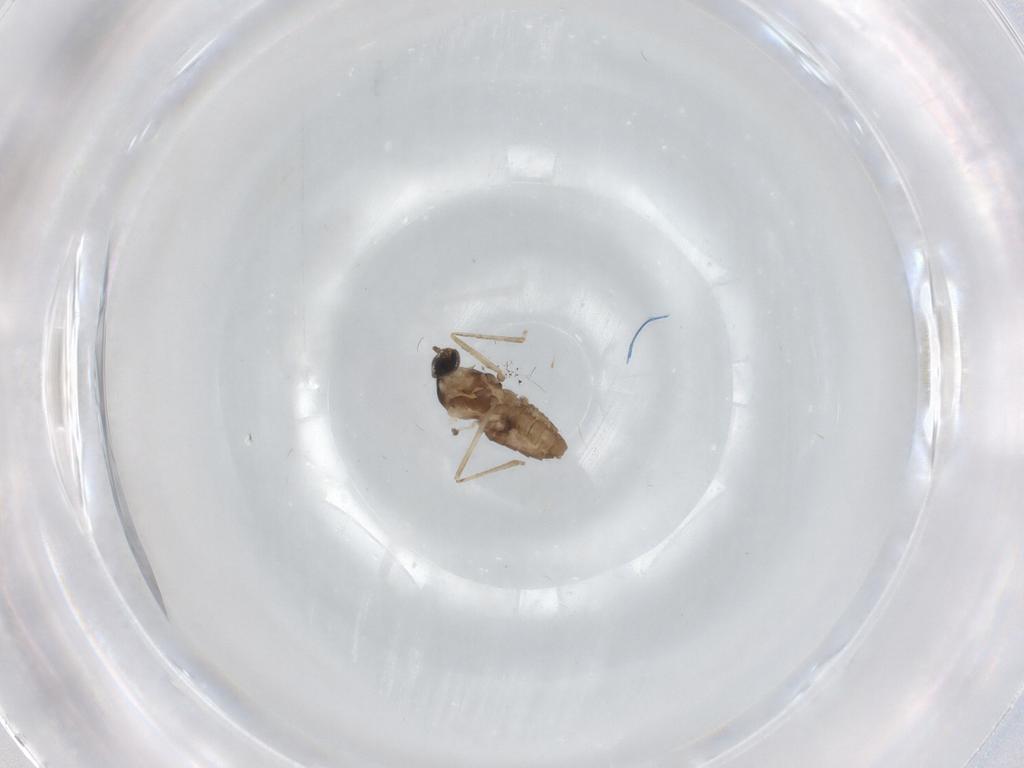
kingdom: Animalia
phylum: Arthropoda
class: Insecta
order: Diptera
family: Cecidomyiidae
